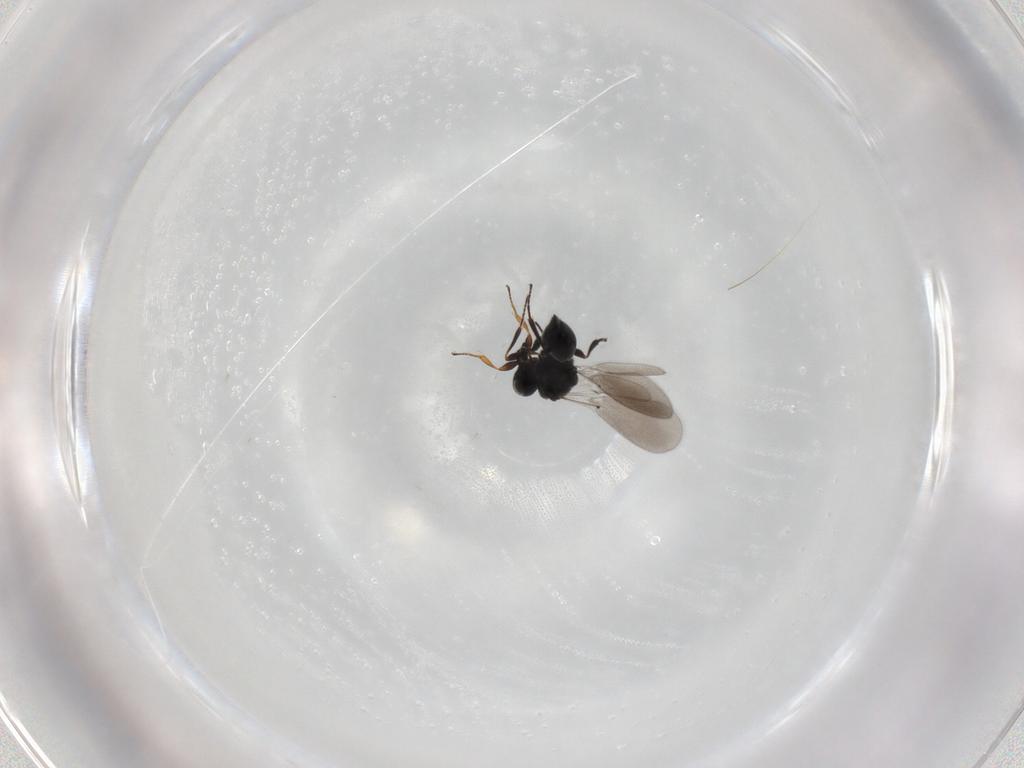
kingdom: Animalia
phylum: Arthropoda
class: Insecta
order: Hymenoptera
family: Platygastridae
